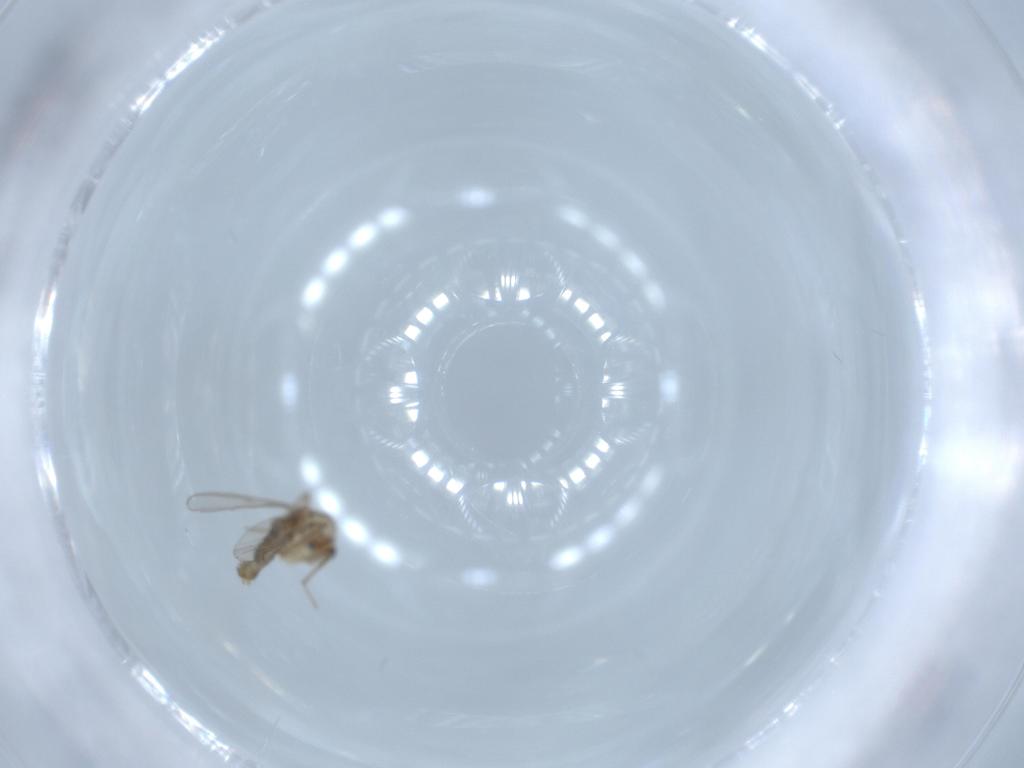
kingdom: Animalia
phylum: Arthropoda
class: Insecta
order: Diptera
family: Chironomidae
